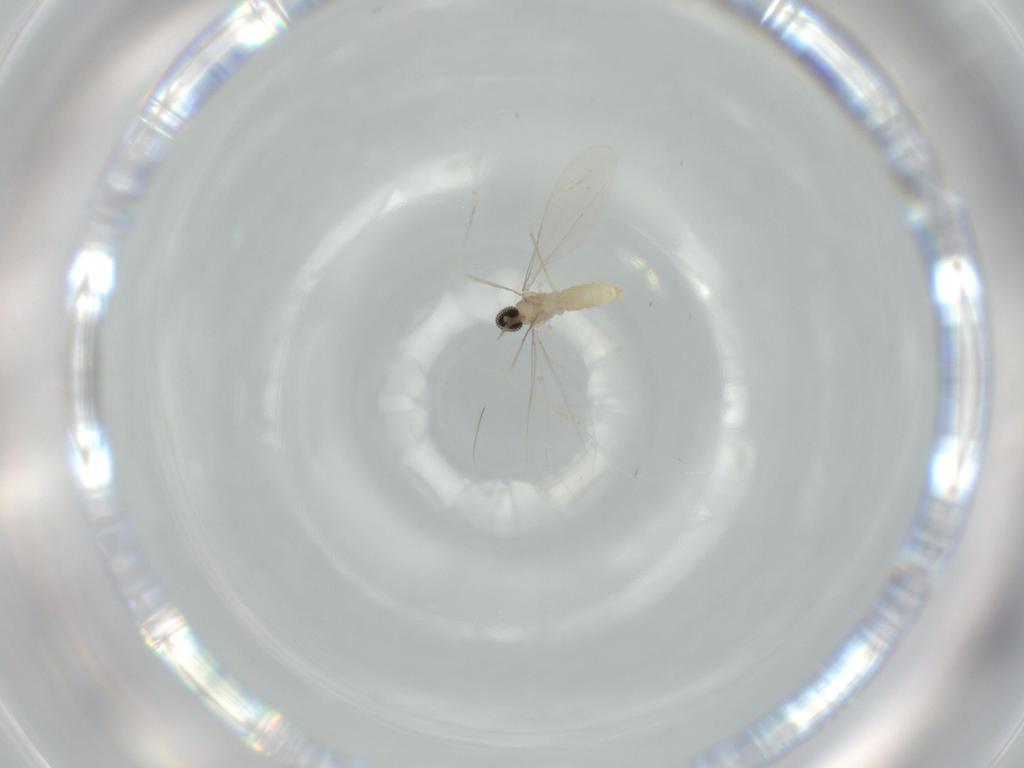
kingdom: Animalia
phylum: Arthropoda
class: Insecta
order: Diptera
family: Cecidomyiidae
